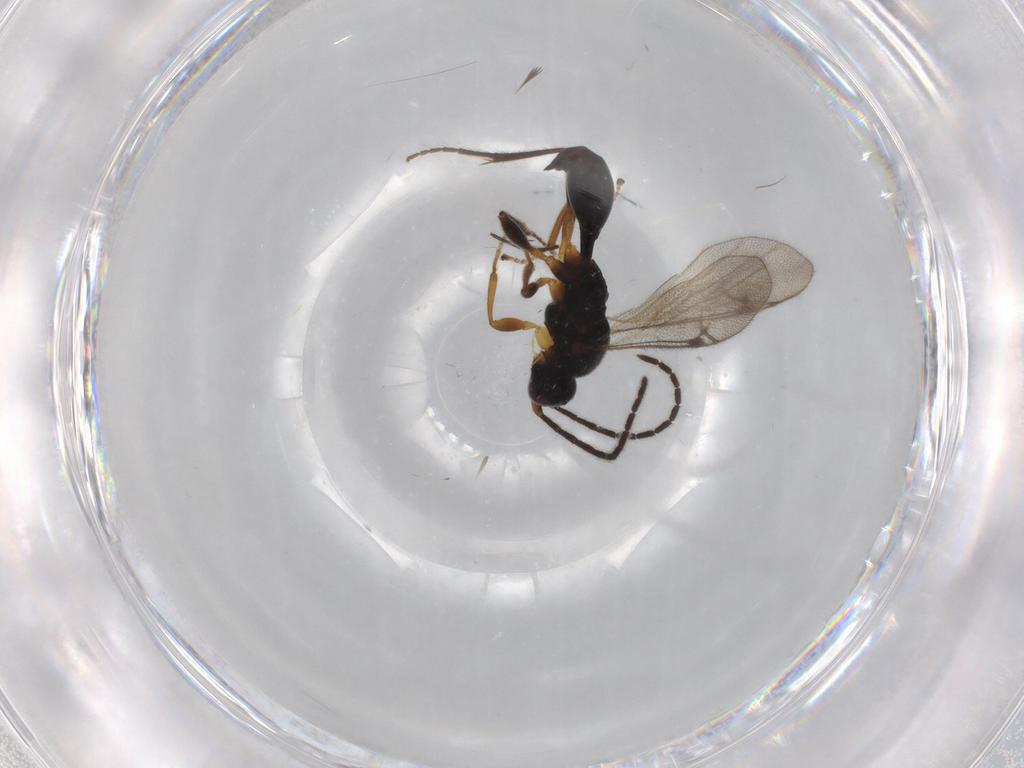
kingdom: Animalia
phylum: Arthropoda
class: Insecta
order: Hymenoptera
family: Proctotrupidae
